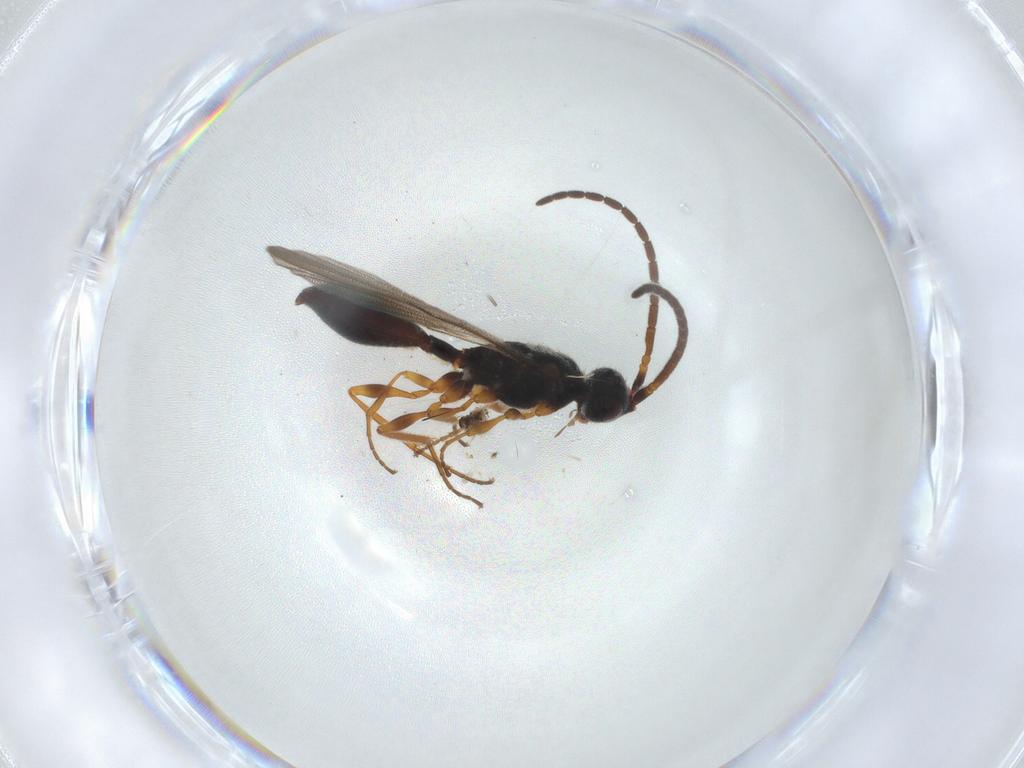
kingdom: Animalia
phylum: Arthropoda
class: Insecta
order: Hymenoptera
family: Diapriidae
